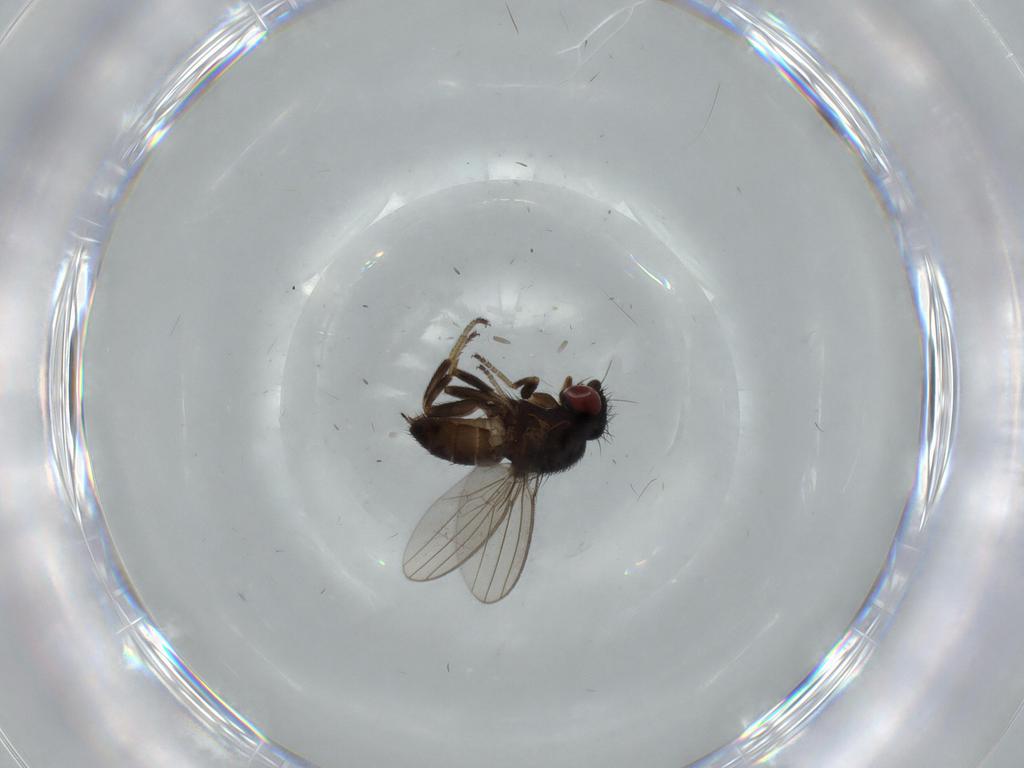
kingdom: Animalia
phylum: Arthropoda
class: Insecta
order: Diptera
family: Milichiidae
